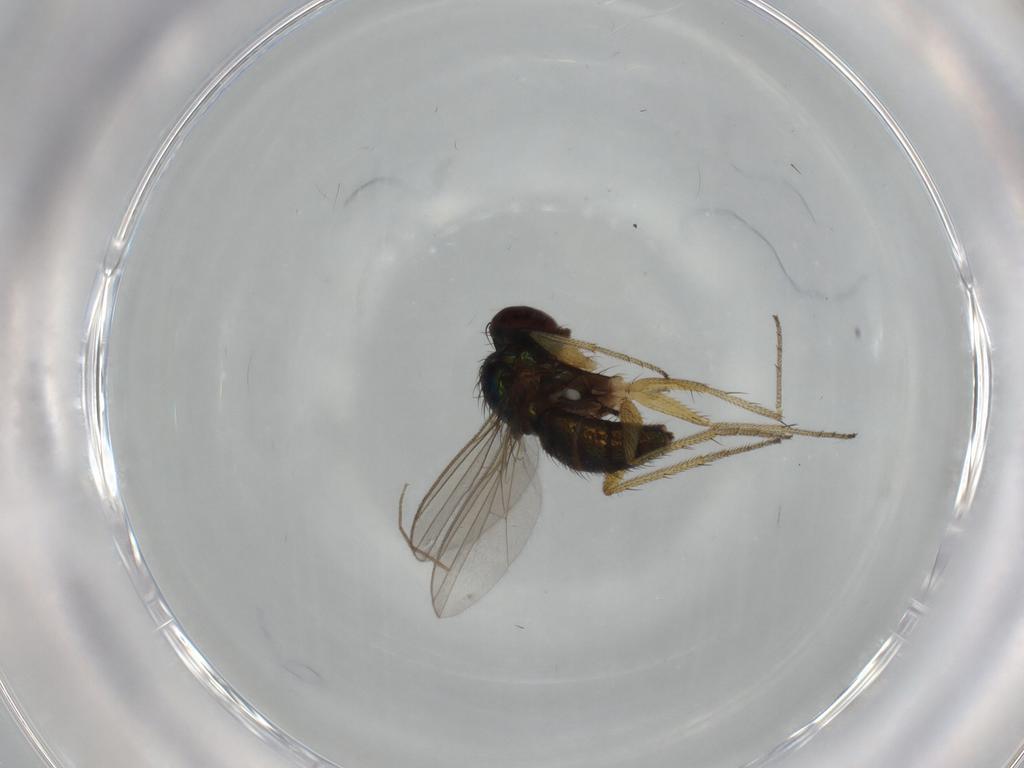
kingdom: Animalia
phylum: Arthropoda
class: Insecta
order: Diptera
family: Dolichopodidae
